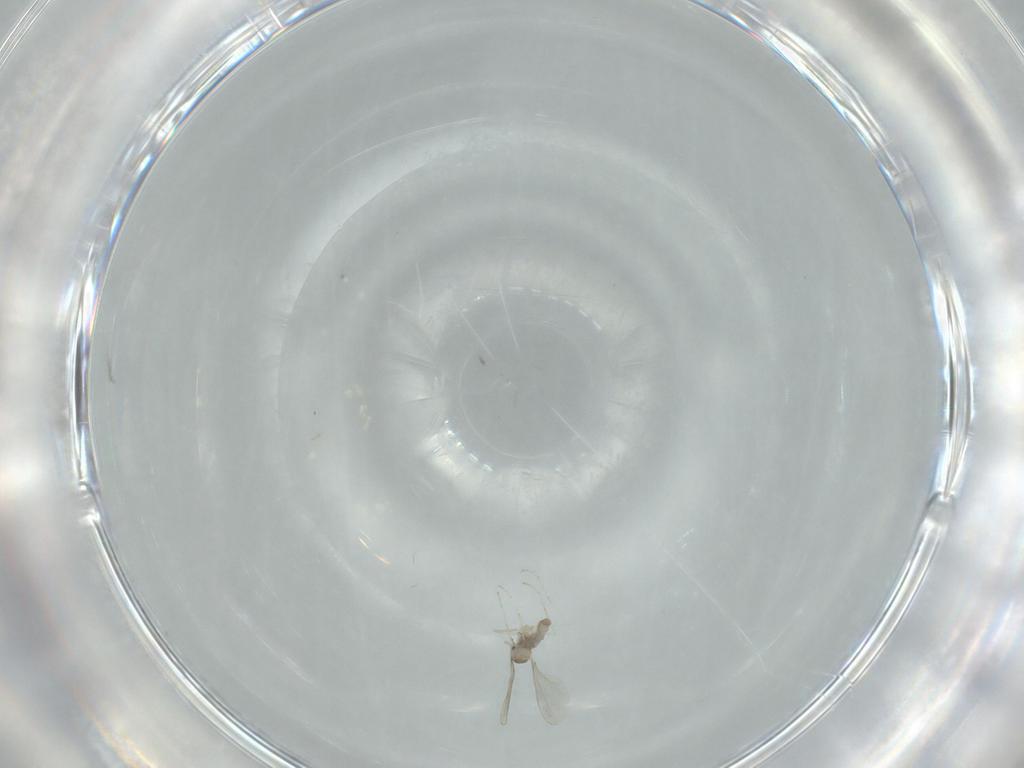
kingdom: Animalia
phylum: Arthropoda
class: Insecta
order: Diptera
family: Cecidomyiidae
